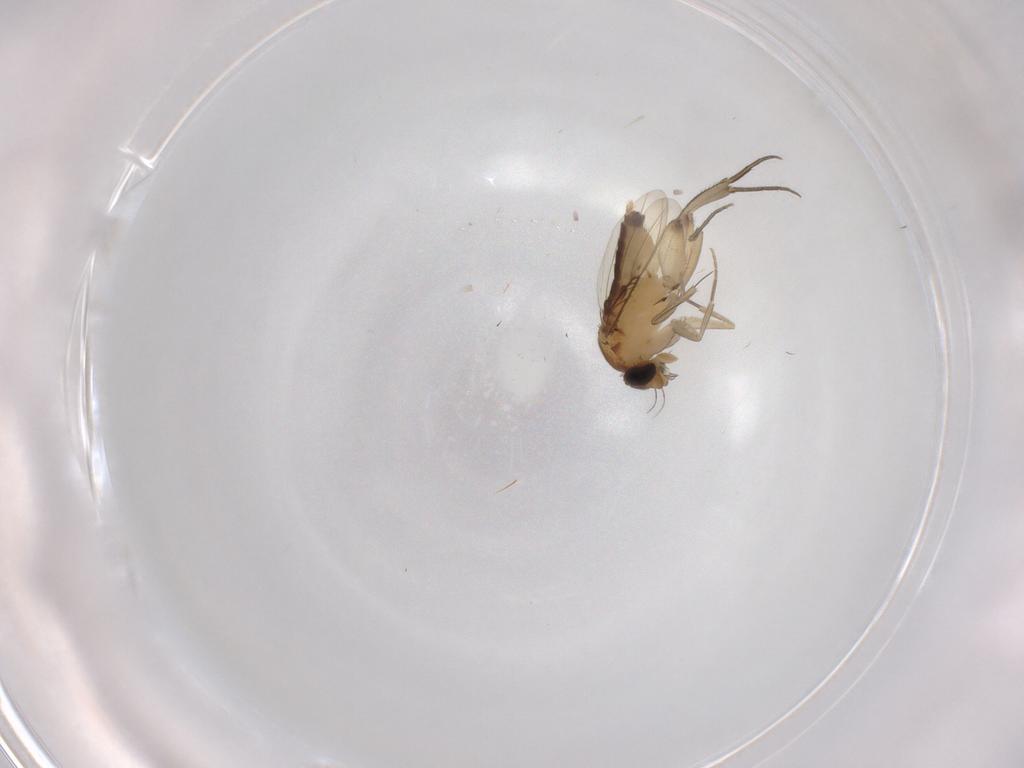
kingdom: Animalia
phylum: Arthropoda
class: Insecta
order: Diptera
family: Phoridae
